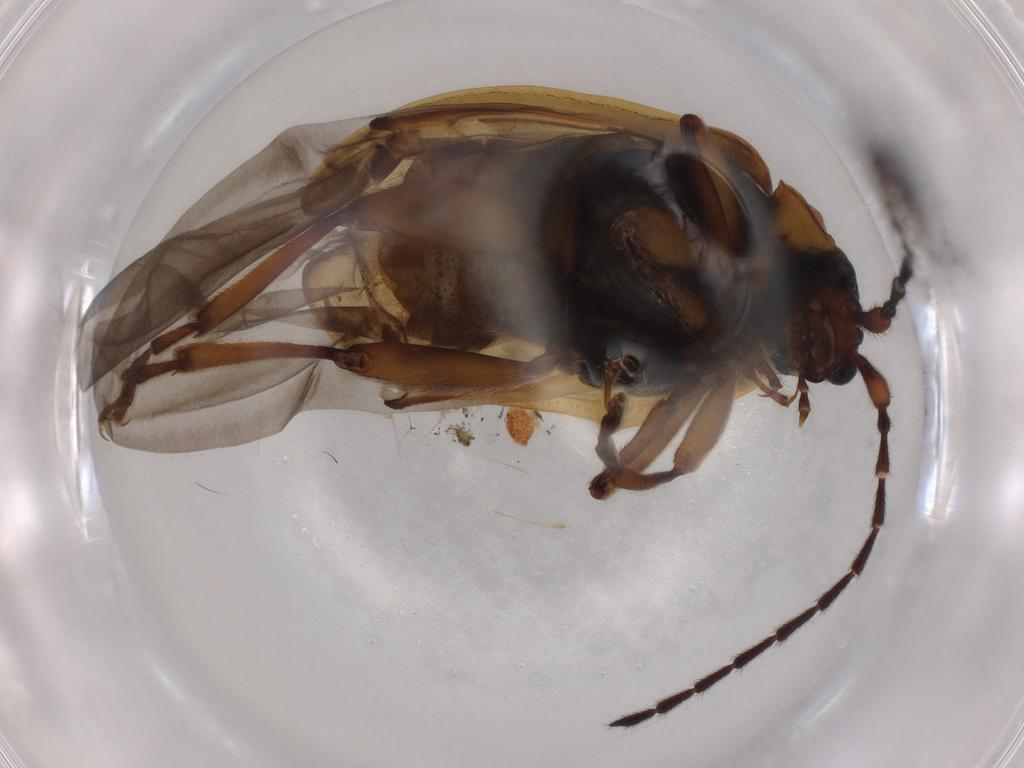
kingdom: Animalia
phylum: Arthropoda
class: Insecta
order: Coleoptera
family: Chrysomelidae
